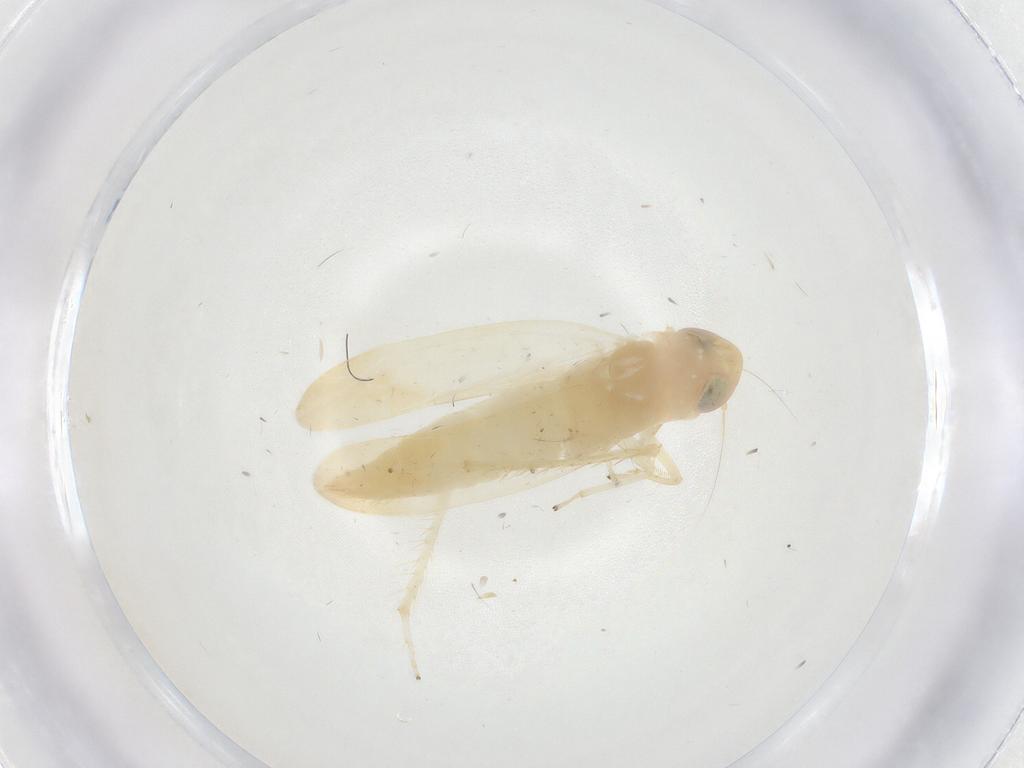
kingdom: Animalia
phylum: Arthropoda
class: Insecta
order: Hemiptera
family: Cicadellidae
